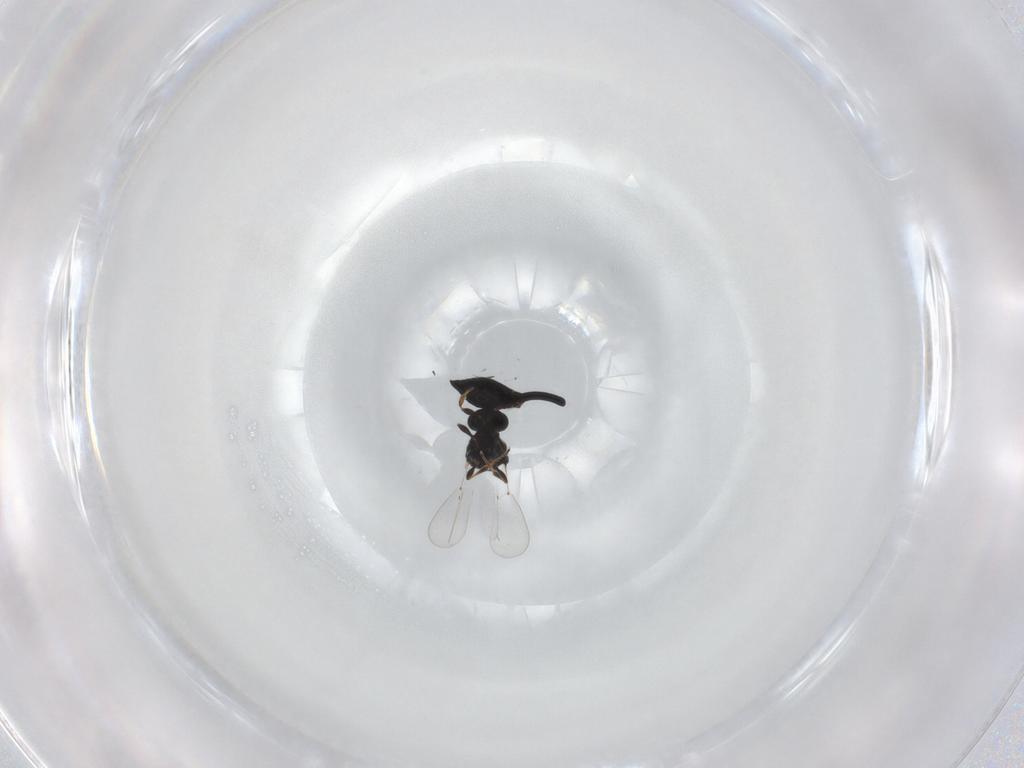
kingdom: Animalia
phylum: Arthropoda
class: Insecta
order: Hymenoptera
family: Platygastridae
